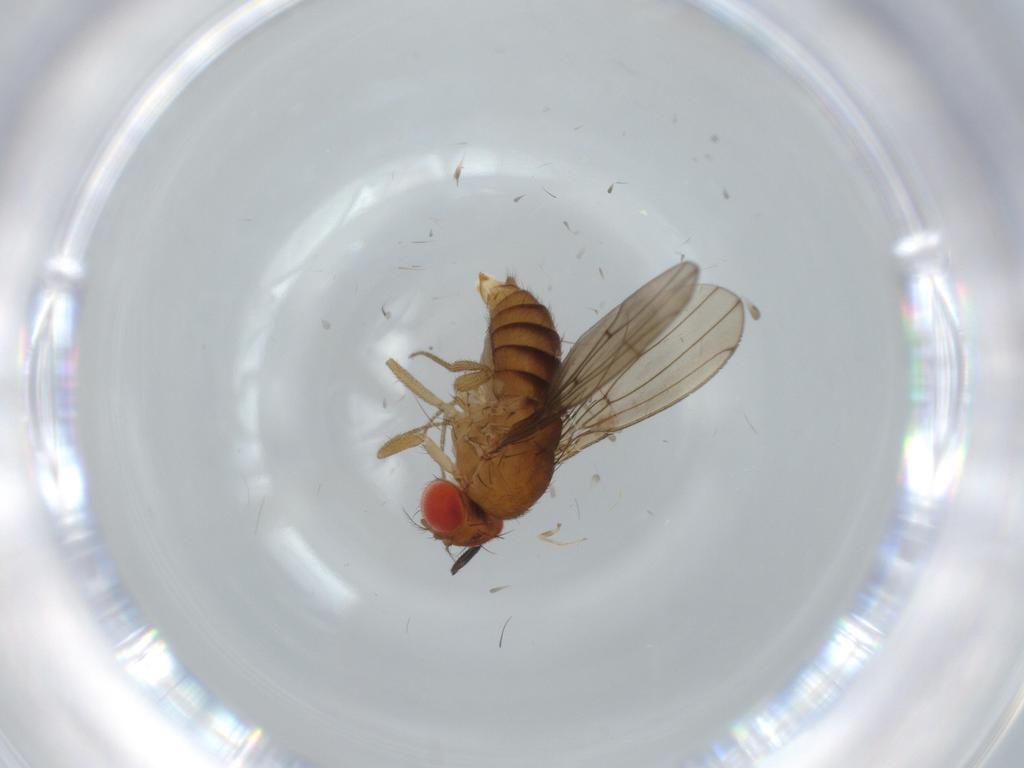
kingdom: Animalia
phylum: Arthropoda
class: Insecta
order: Diptera
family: Drosophilidae
